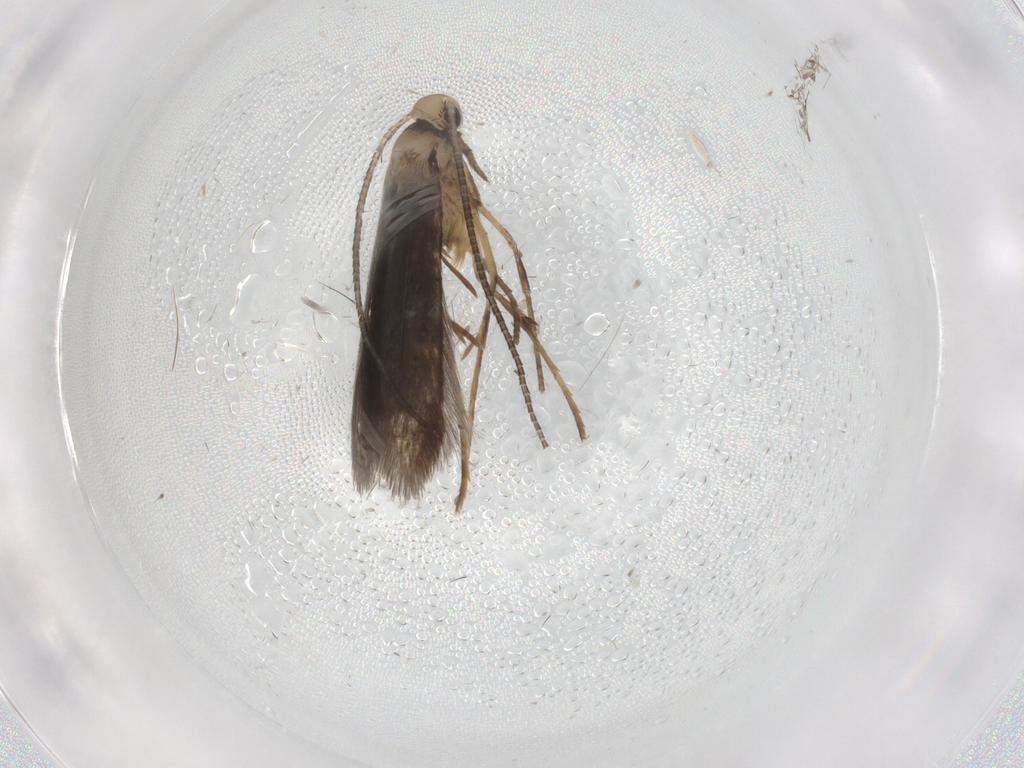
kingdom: Animalia
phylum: Arthropoda
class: Insecta
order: Lepidoptera
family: Gracillariidae
